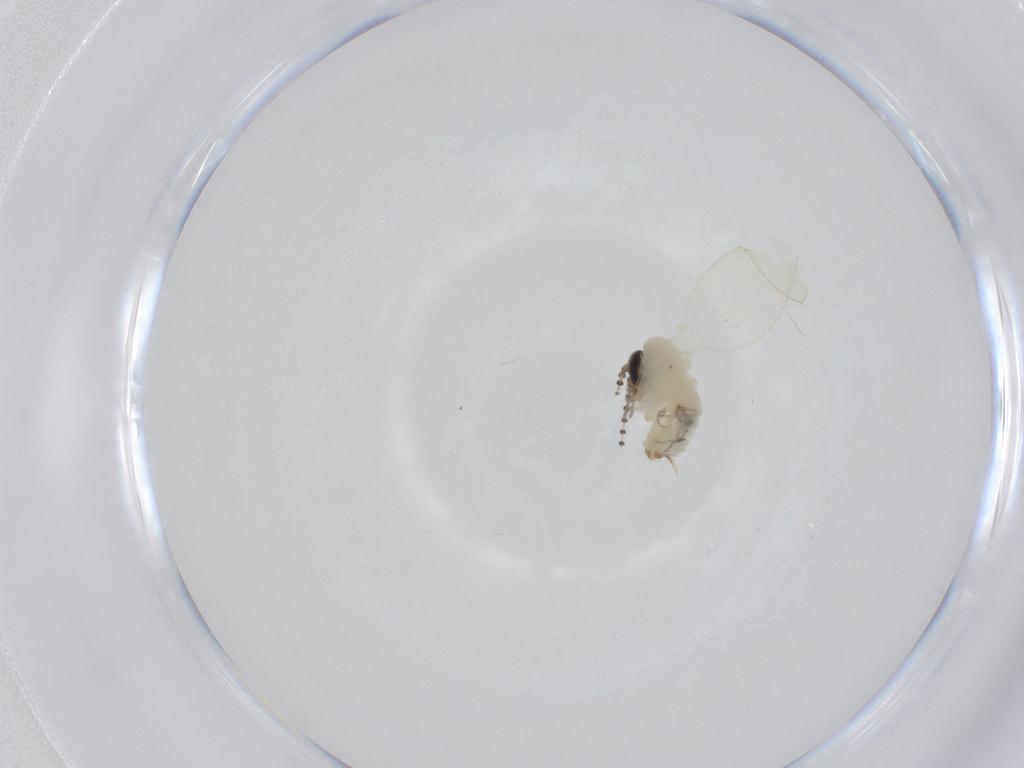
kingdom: Animalia
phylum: Arthropoda
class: Insecta
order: Diptera
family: Psychodidae
